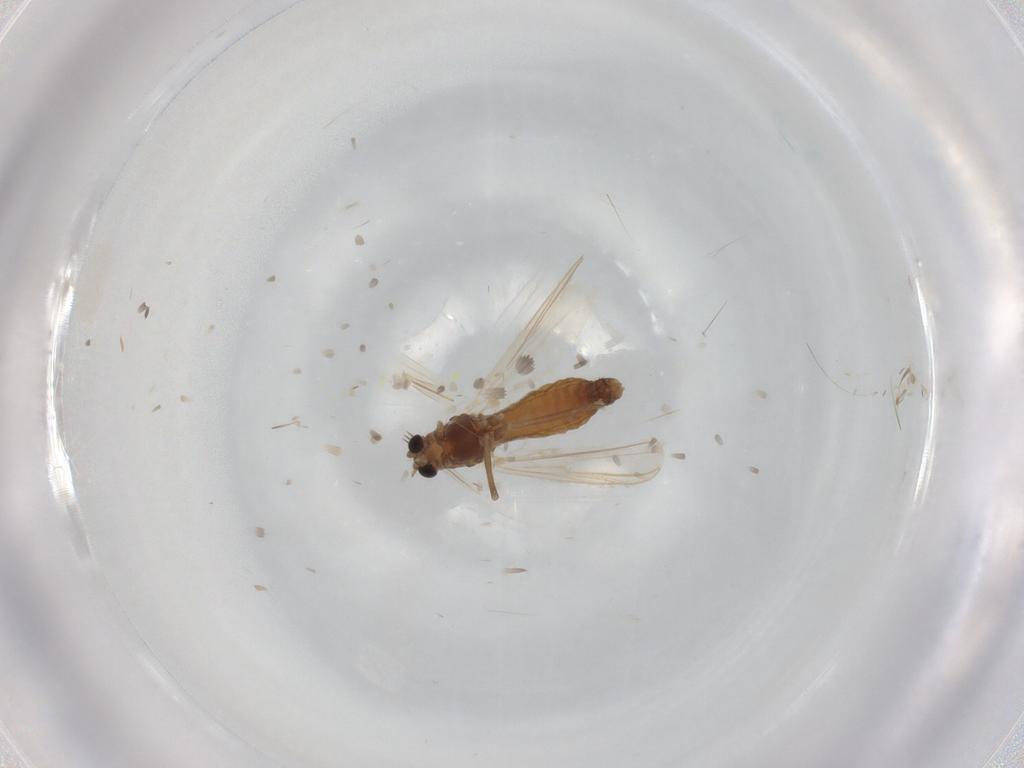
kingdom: Animalia
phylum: Arthropoda
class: Insecta
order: Diptera
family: Chironomidae
